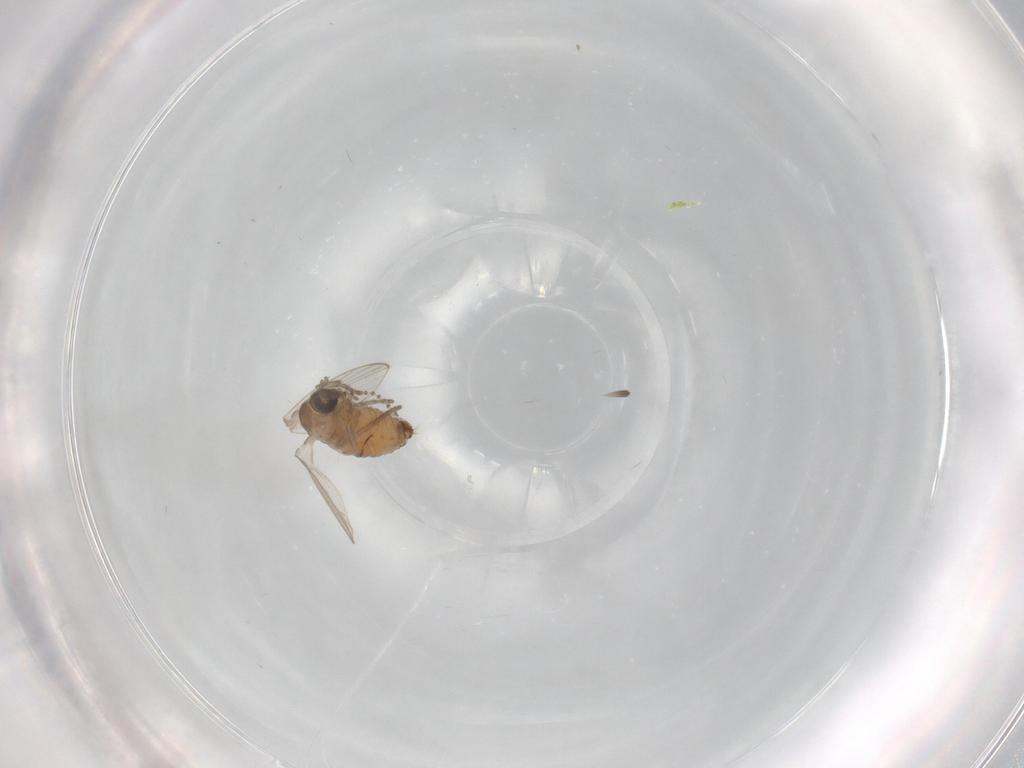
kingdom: Animalia
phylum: Arthropoda
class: Insecta
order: Diptera
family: Psychodidae
